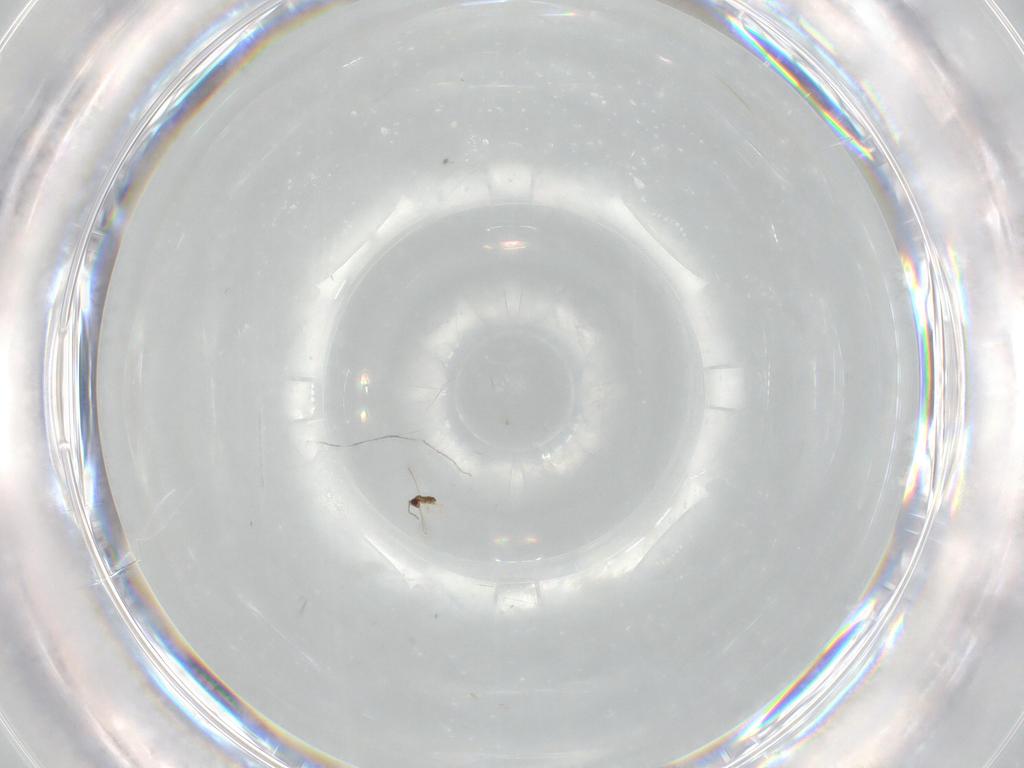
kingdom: Animalia
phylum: Arthropoda
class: Insecta
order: Hymenoptera
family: Mymaridae
